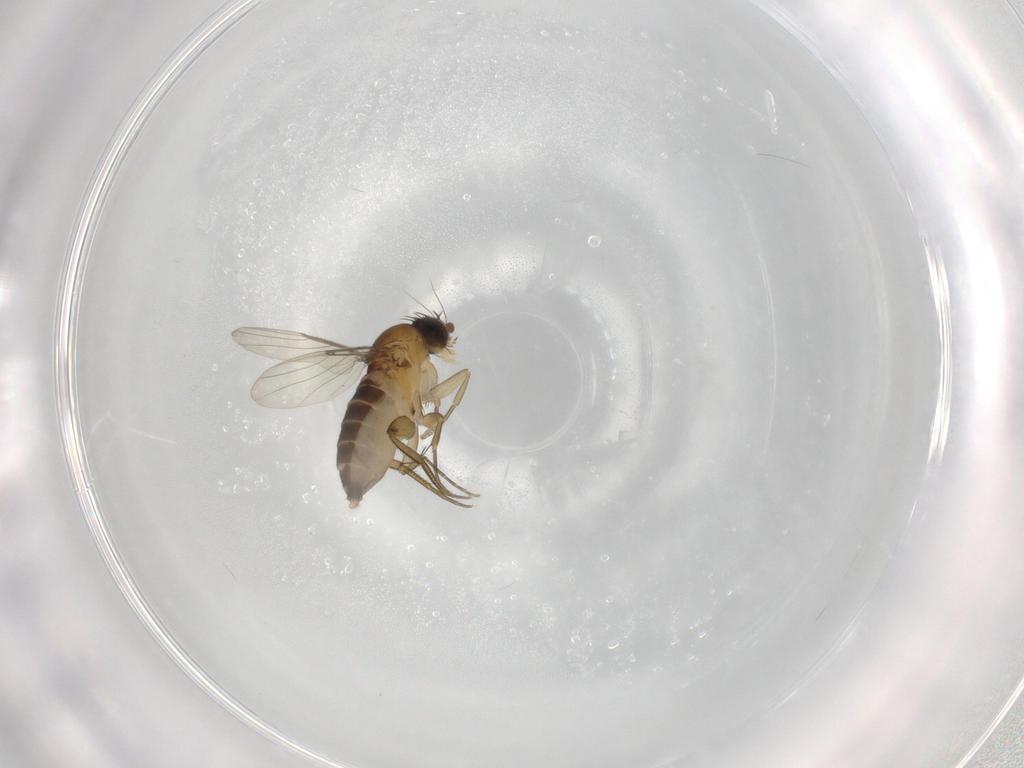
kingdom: Animalia
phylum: Arthropoda
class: Insecta
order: Diptera
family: Phoridae
